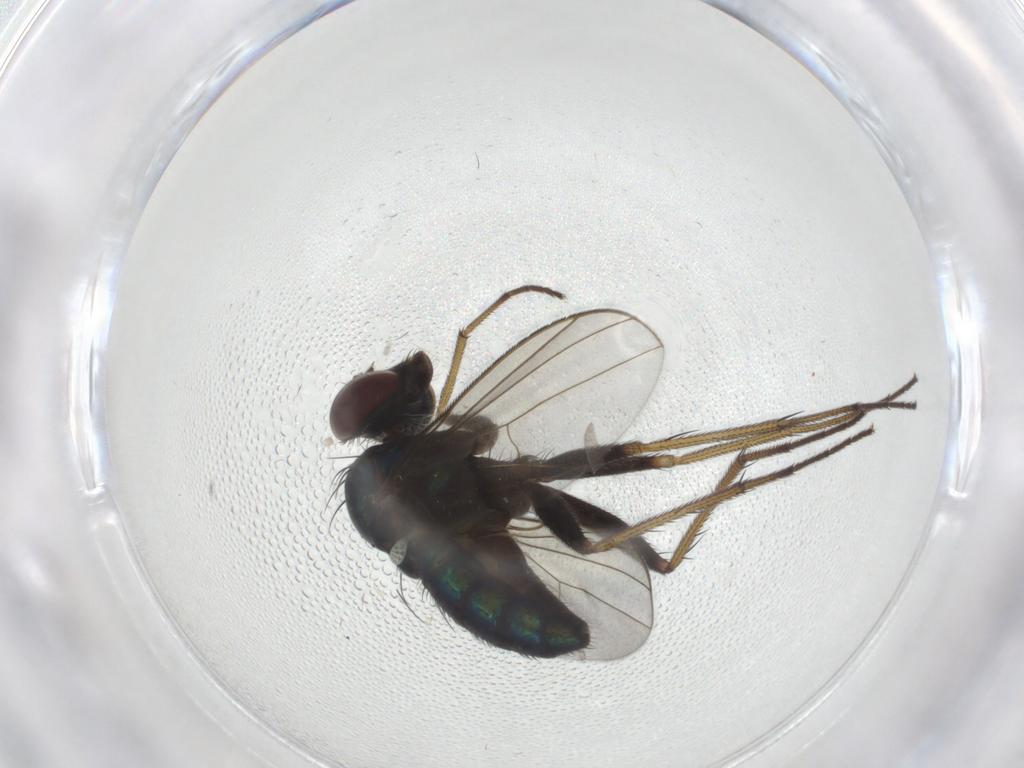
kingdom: Animalia
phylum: Arthropoda
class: Insecta
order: Diptera
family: Dolichopodidae
